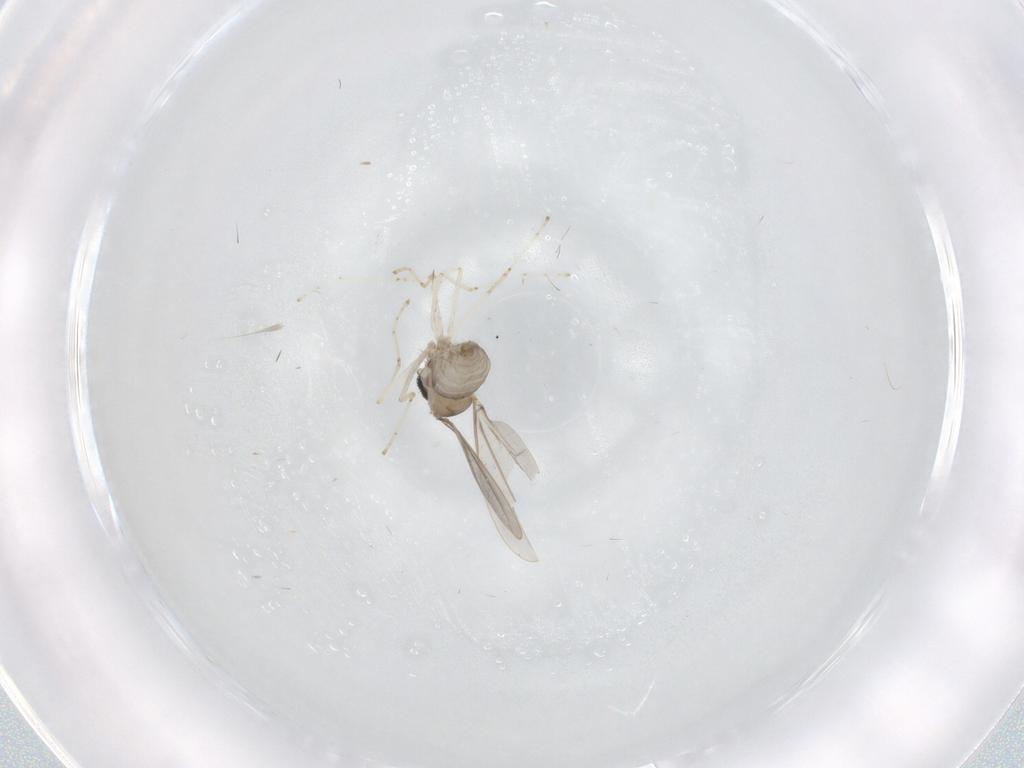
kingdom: Animalia
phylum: Arthropoda
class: Insecta
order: Diptera
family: Cecidomyiidae
